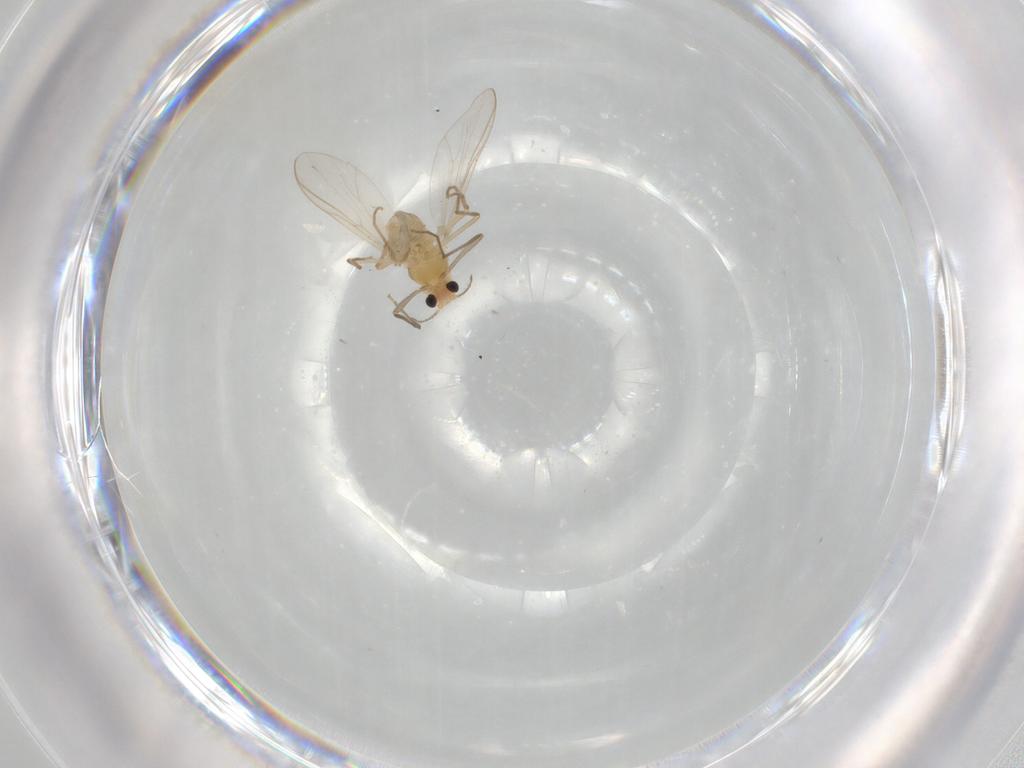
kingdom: Animalia
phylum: Arthropoda
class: Insecta
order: Diptera
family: Chironomidae
